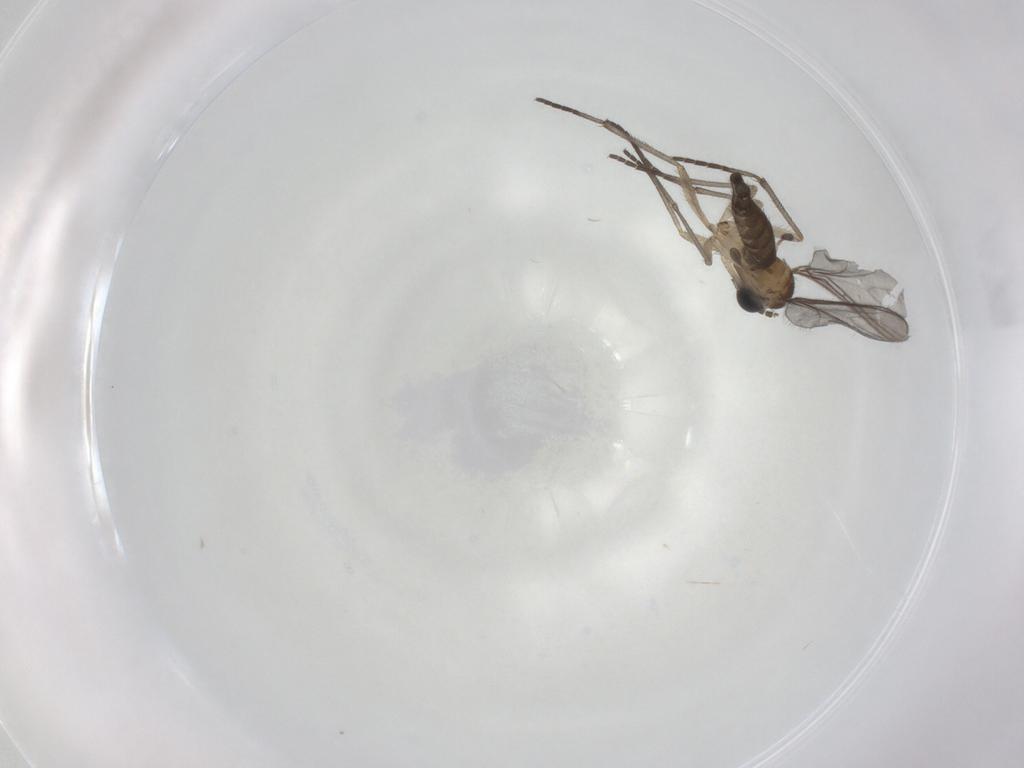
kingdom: Animalia
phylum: Arthropoda
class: Insecta
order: Diptera
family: Sciaridae
